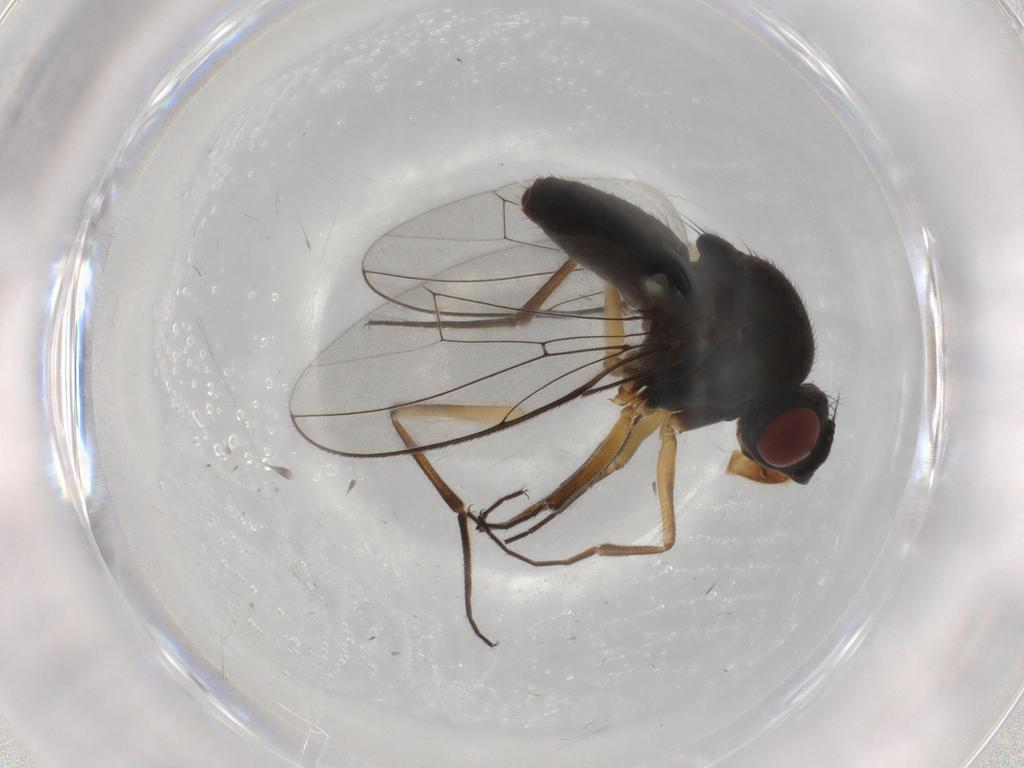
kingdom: Animalia
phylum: Arthropoda
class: Insecta
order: Diptera
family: Ephydridae
